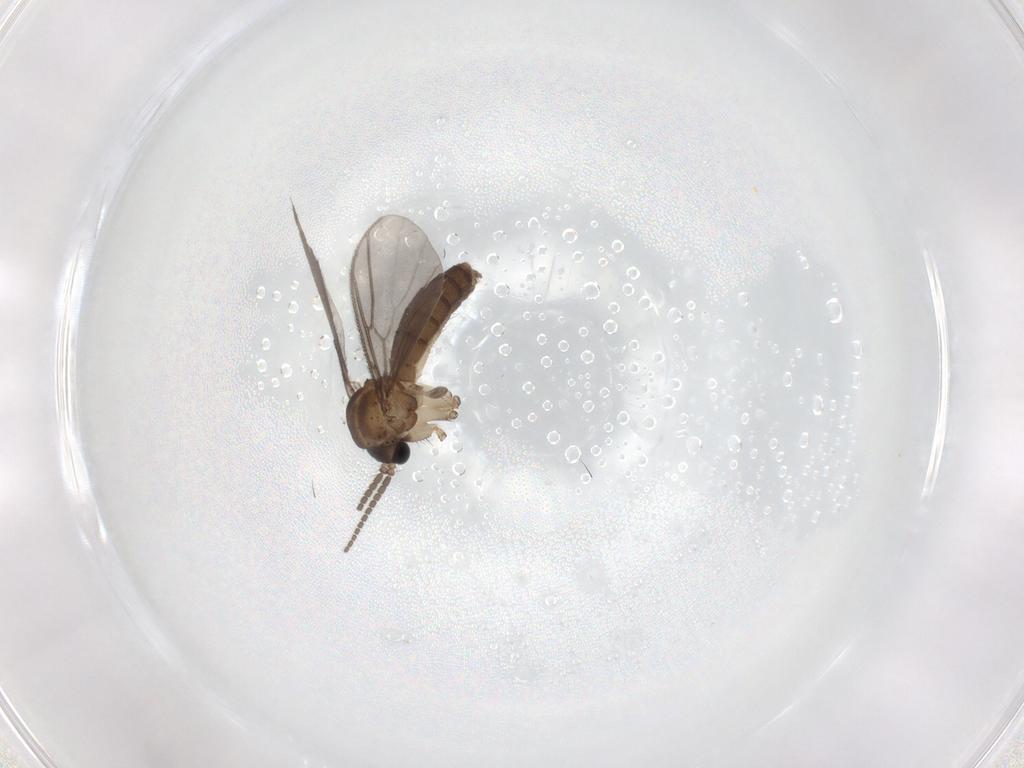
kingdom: Animalia
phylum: Arthropoda
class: Insecta
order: Diptera
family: Mycetophilidae
